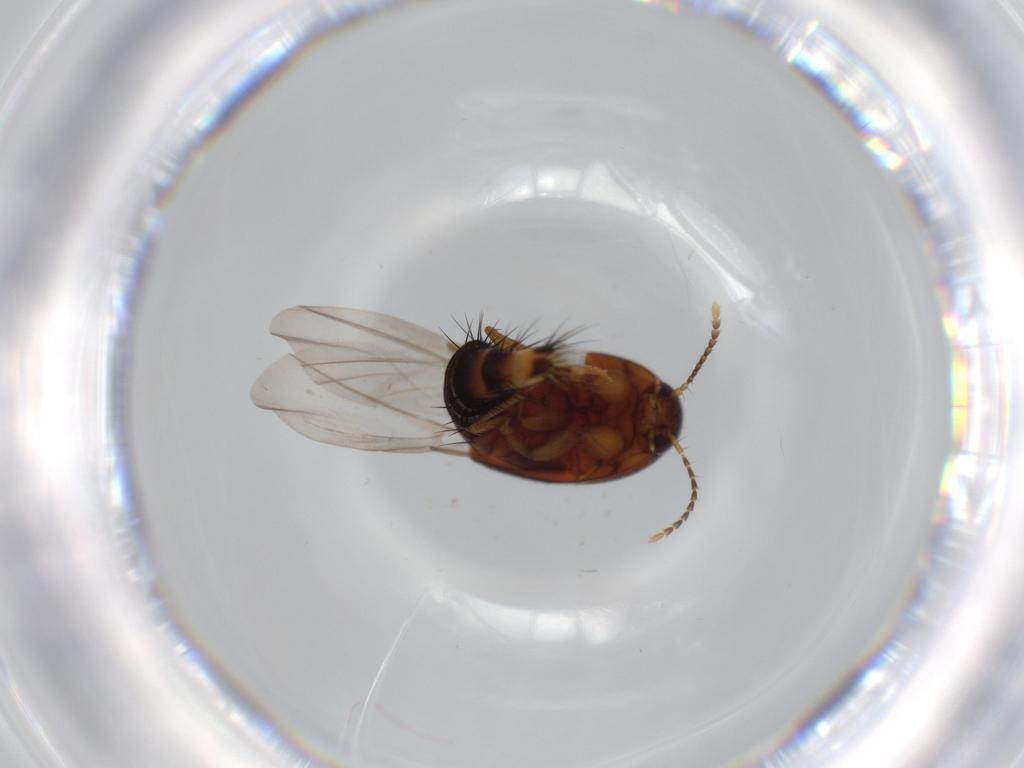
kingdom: Animalia
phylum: Arthropoda
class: Insecta
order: Coleoptera
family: Staphylinidae
